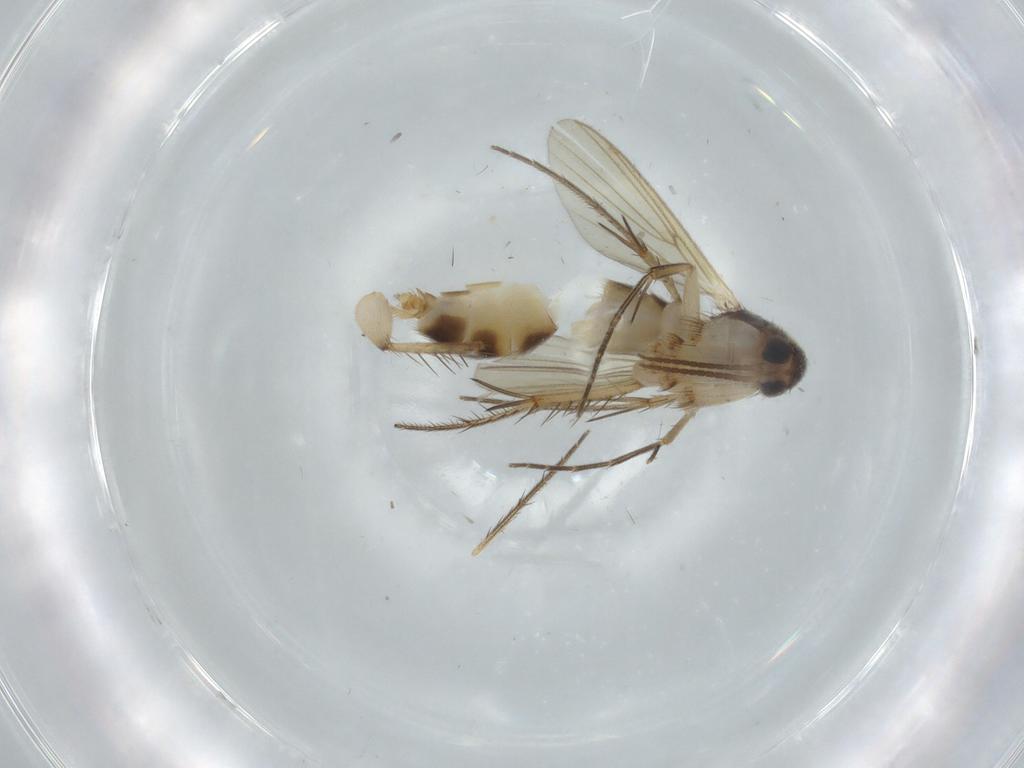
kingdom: Animalia
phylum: Arthropoda
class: Insecta
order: Diptera
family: Mycetophilidae
